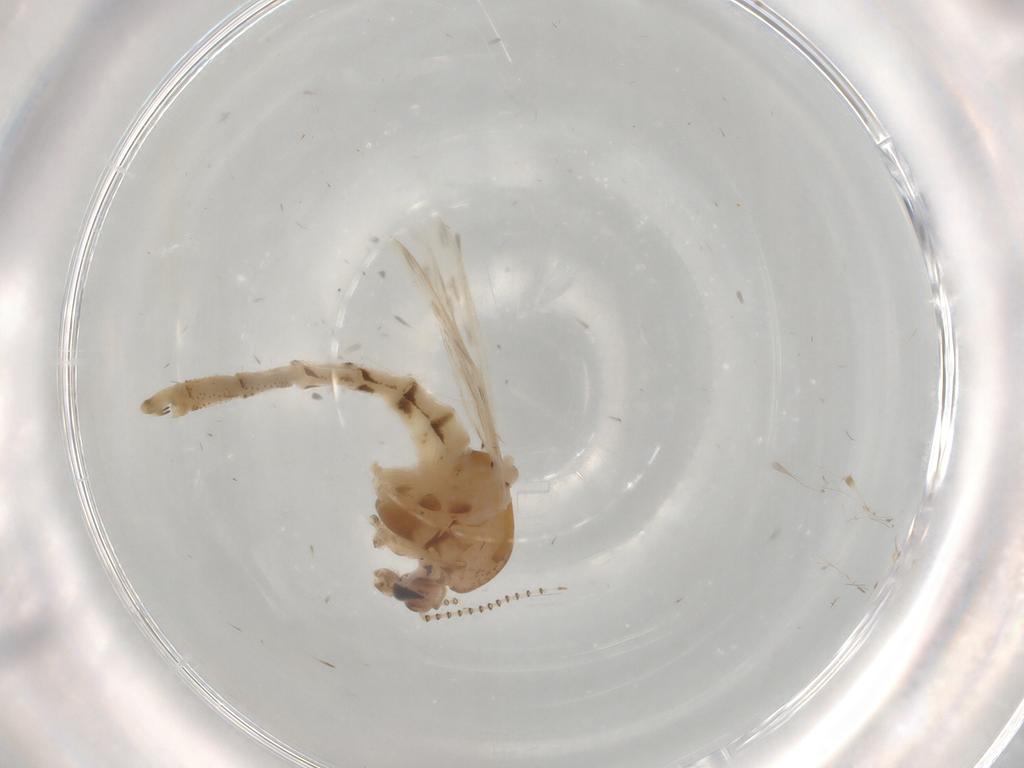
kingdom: Animalia
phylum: Arthropoda
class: Insecta
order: Diptera
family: Chaoboridae
